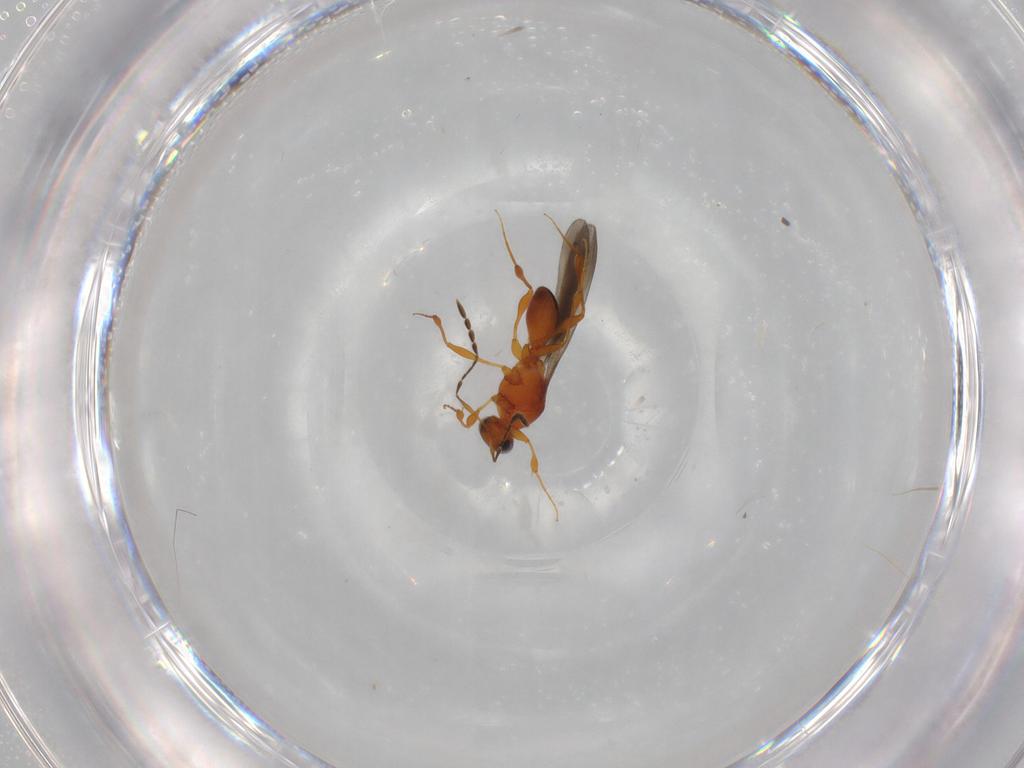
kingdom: Animalia
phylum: Arthropoda
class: Insecta
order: Hymenoptera
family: Platygastridae
